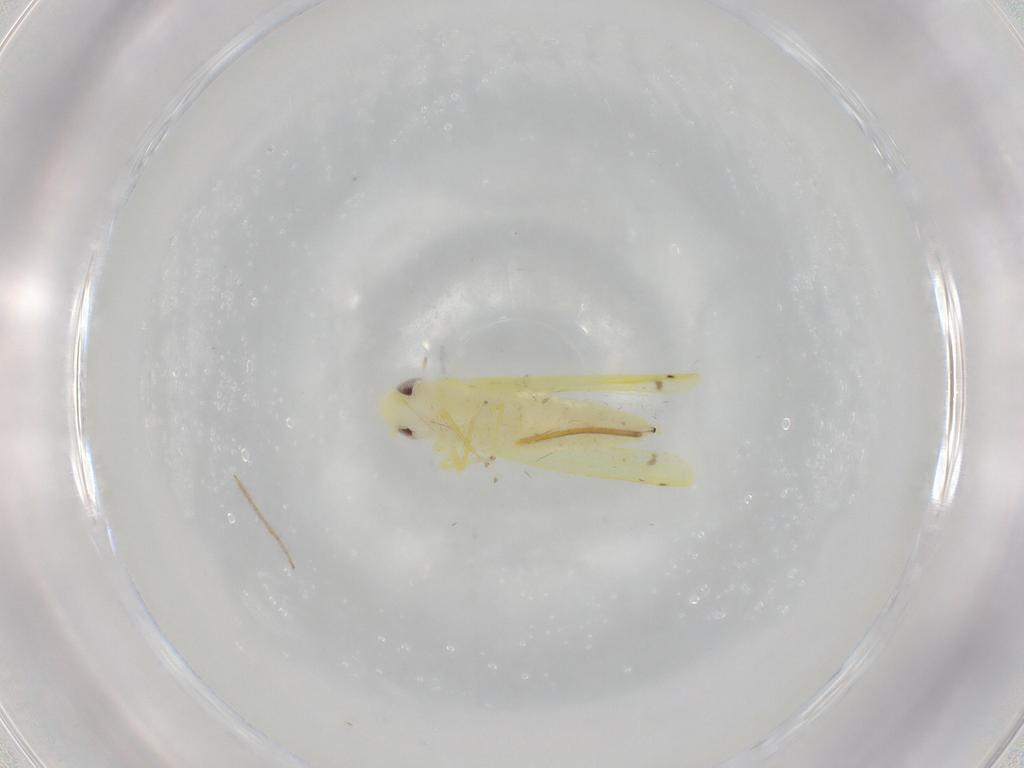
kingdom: Animalia
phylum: Arthropoda
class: Insecta
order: Hemiptera
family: Cicadellidae
